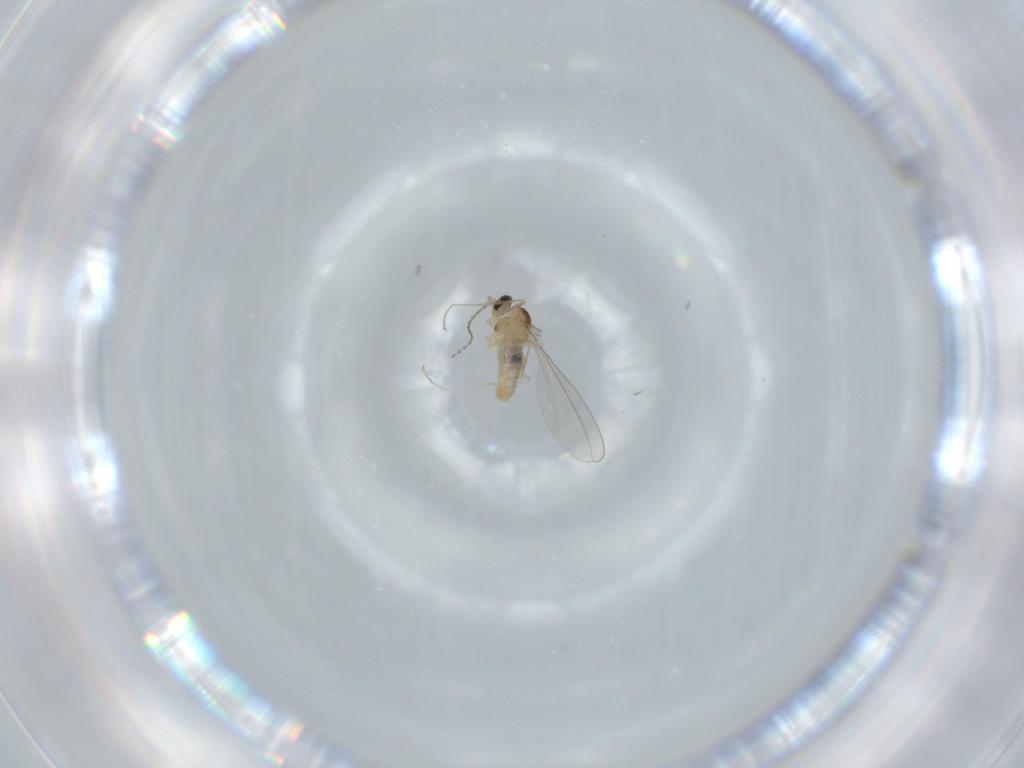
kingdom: Animalia
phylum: Arthropoda
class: Insecta
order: Diptera
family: Cecidomyiidae
